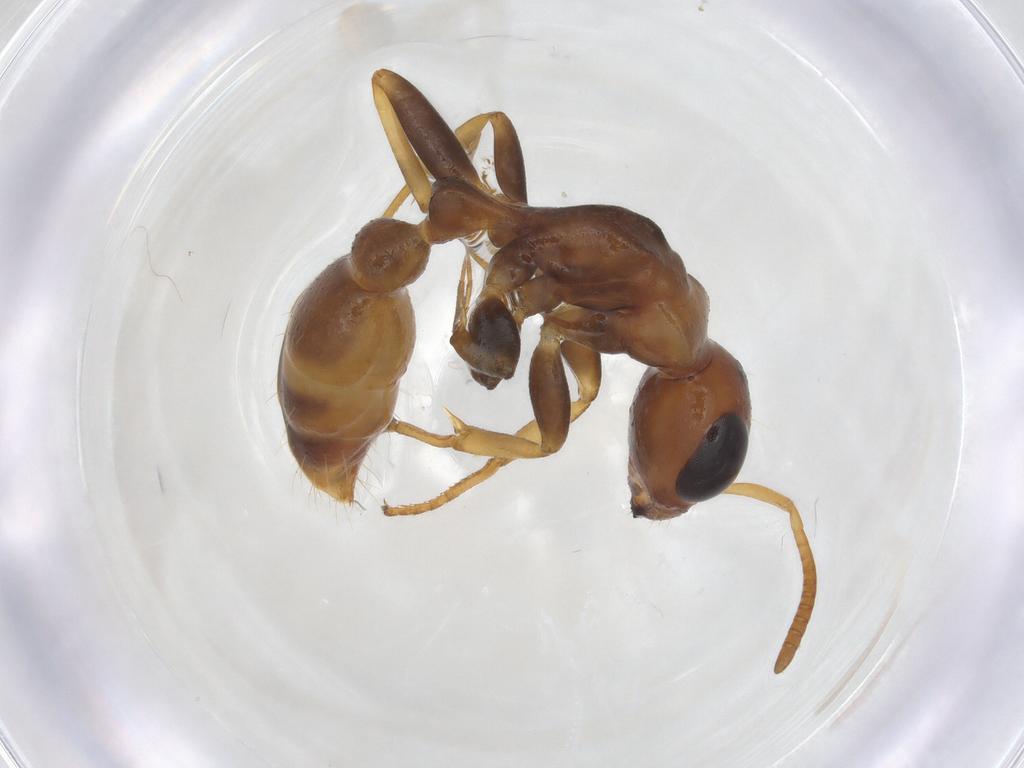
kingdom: Animalia
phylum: Arthropoda
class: Insecta
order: Hymenoptera
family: Formicidae
